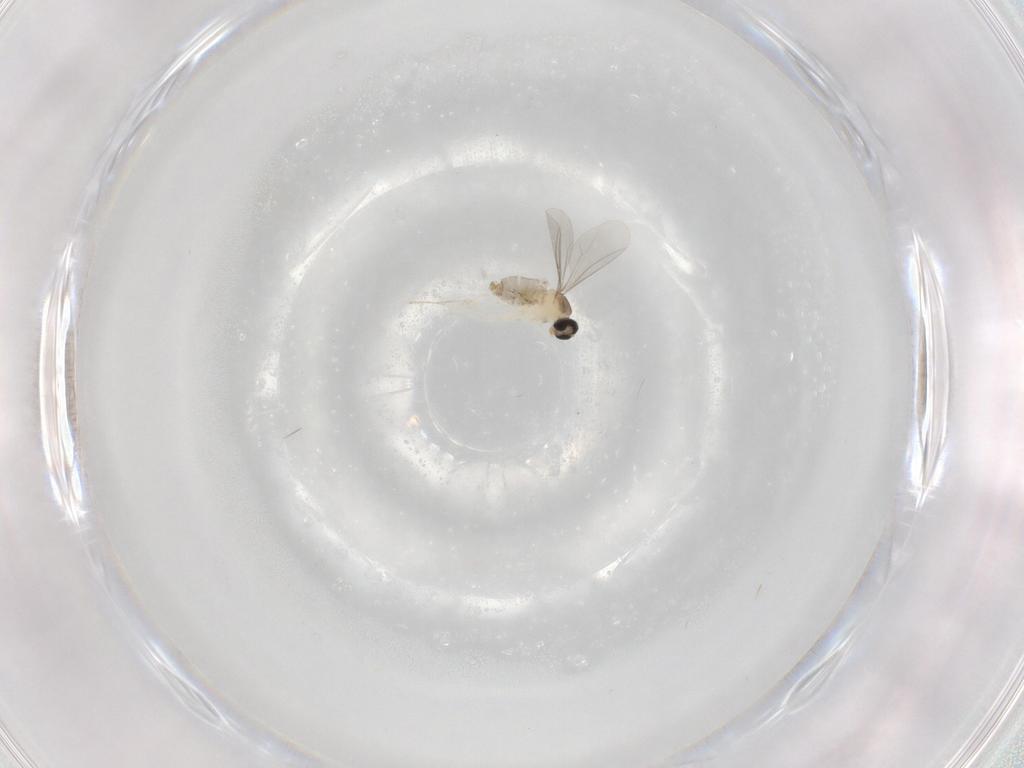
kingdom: Animalia
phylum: Arthropoda
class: Insecta
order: Diptera
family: Cecidomyiidae
